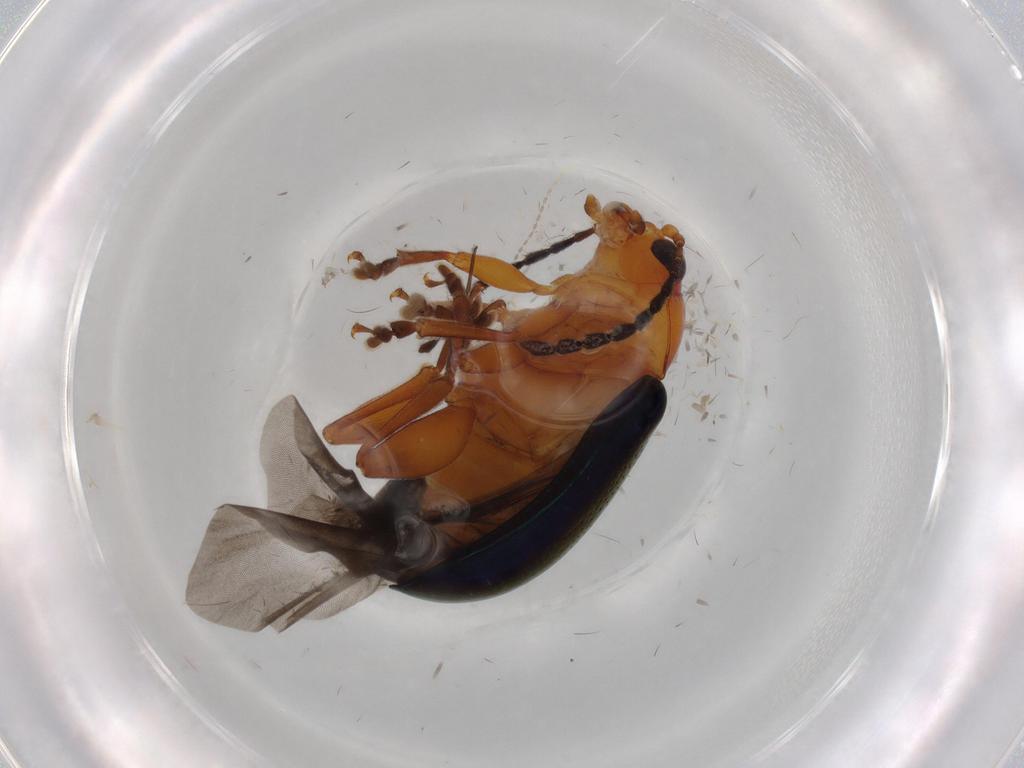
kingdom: Animalia
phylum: Arthropoda
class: Insecta
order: Coleoptera
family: Chrysomelidae
